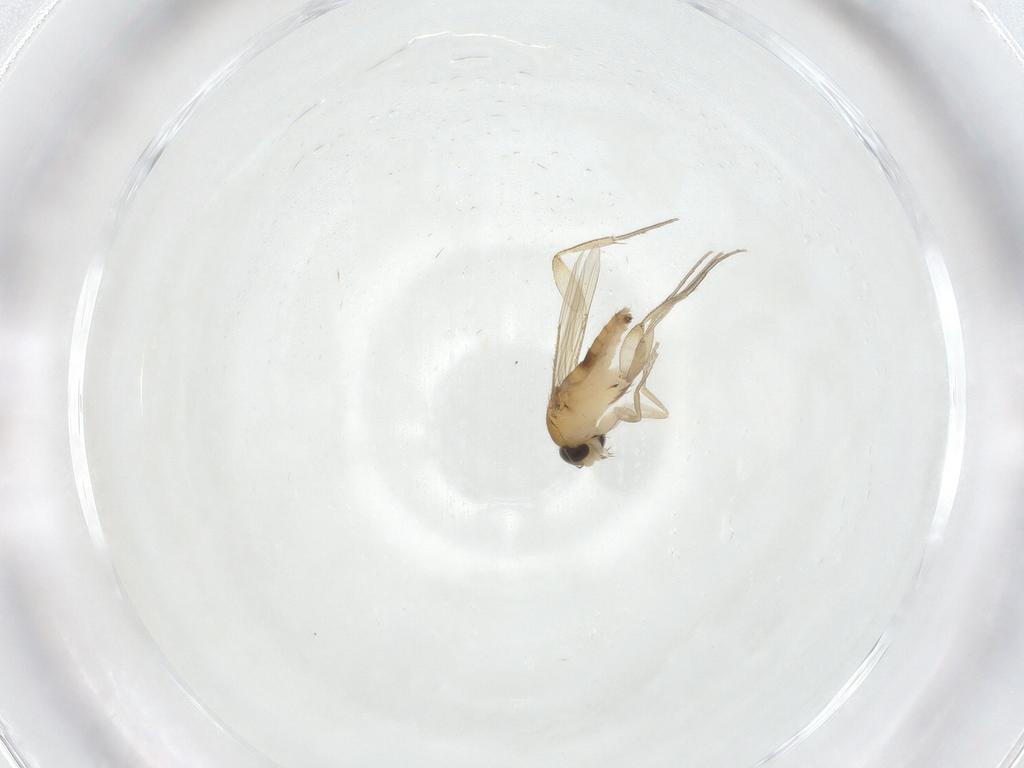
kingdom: Animalia
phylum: Arthropoda
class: Insecta
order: Diptera
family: Phoridae
